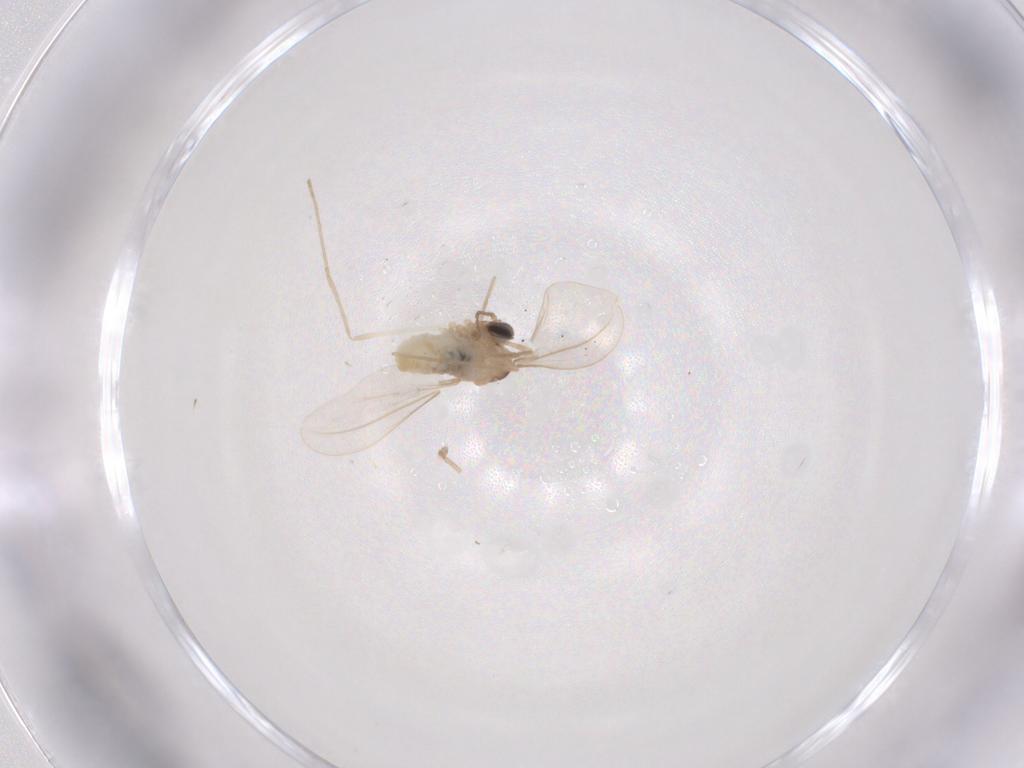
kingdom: Animalia
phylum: Arthropoda
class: Insecta
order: Diptera
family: Cecidomyiidae
